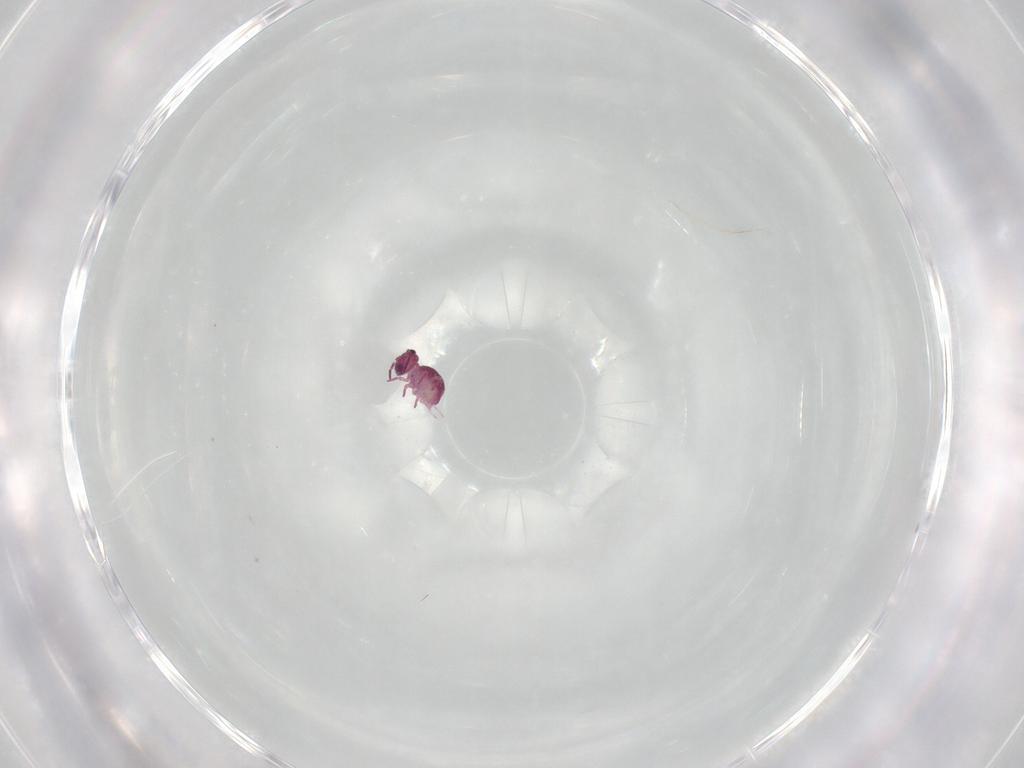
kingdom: Animalia
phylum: Arthropoda
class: Collembola
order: Symphypleona
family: Sminthurididae
